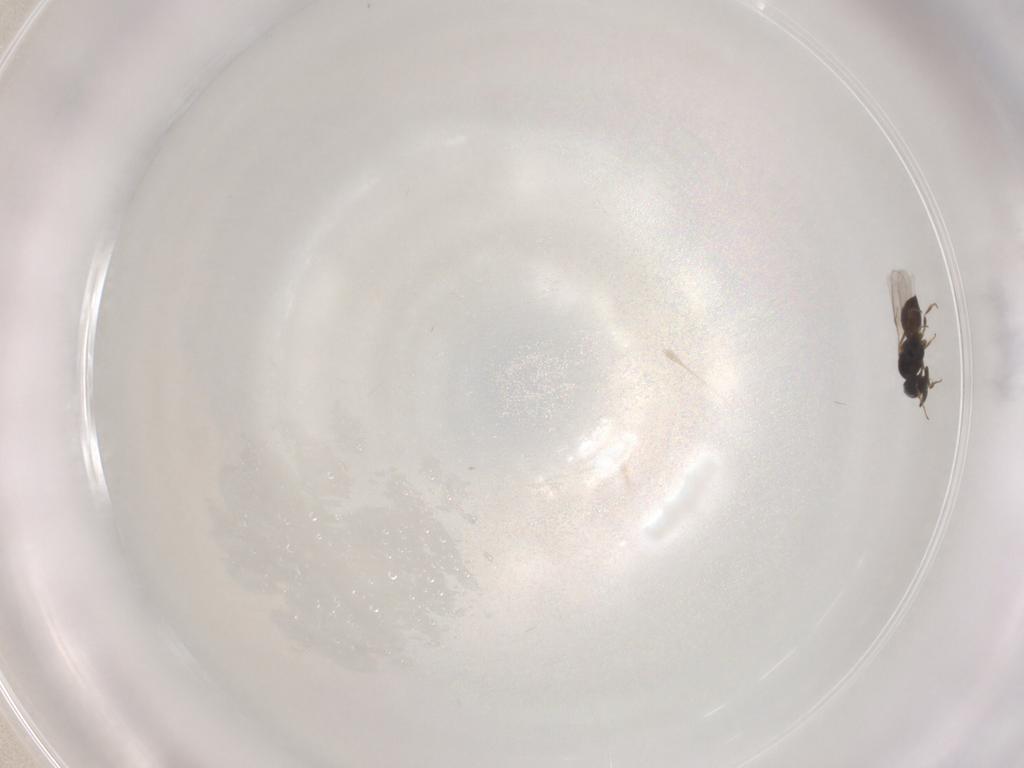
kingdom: Animalia
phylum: Arthropoda
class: Insecta
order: Hymenoptera
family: Scelionidae
